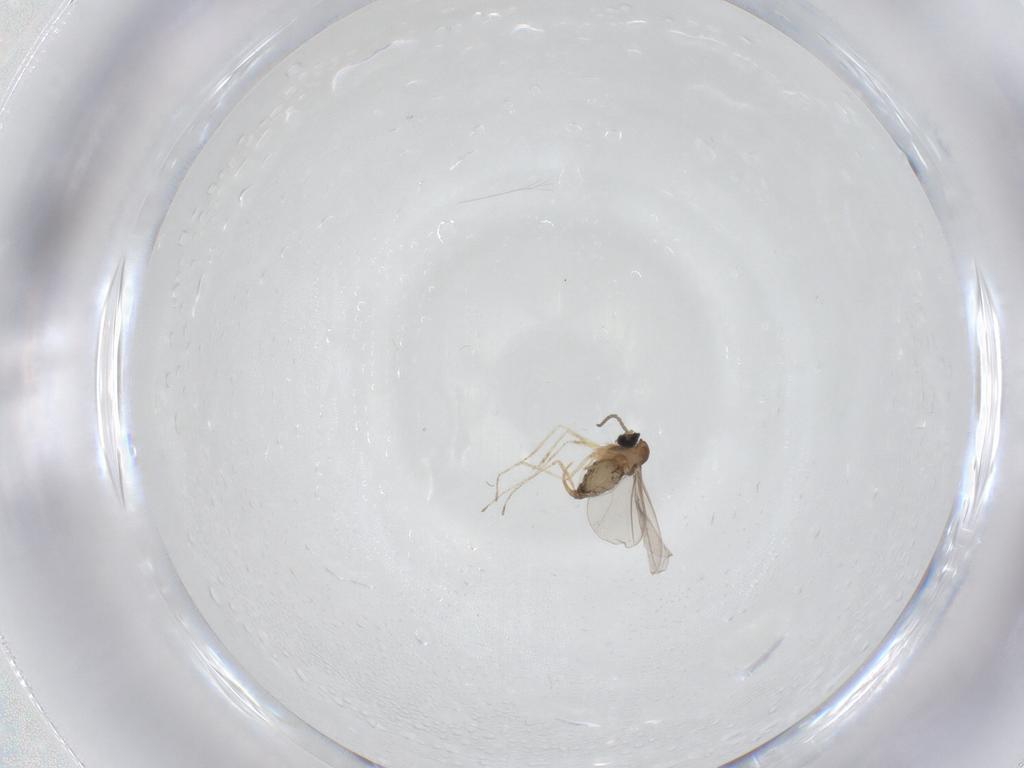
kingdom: Animalia
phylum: Arthropoda
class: Insecta
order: Diptera
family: Cecidomyiidae
